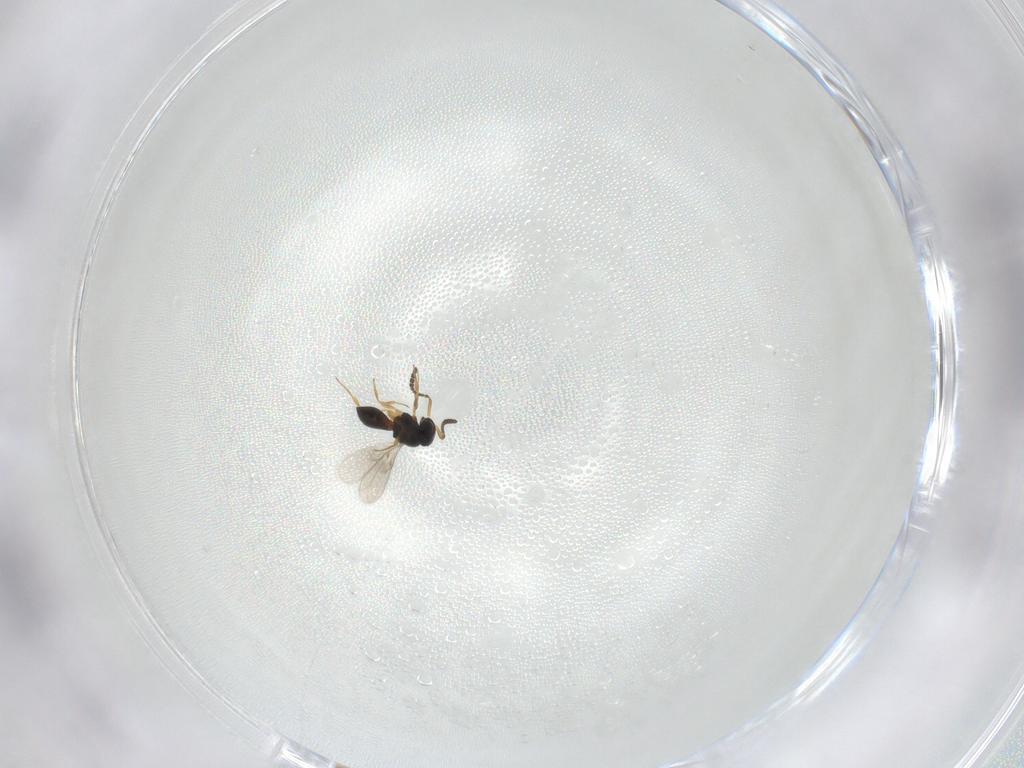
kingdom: Animalia
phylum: Arthropoda
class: Insecta
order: Hymenoptera
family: Scelionidae
